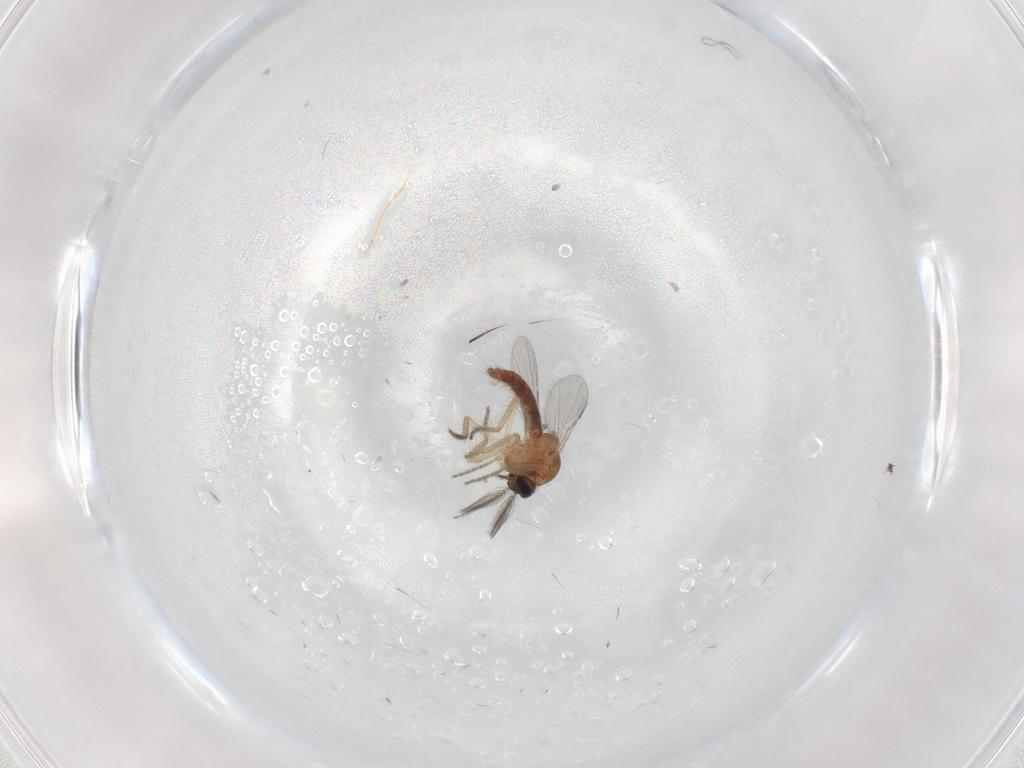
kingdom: Animalia
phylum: Arthropoda
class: Insecta
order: Diptera
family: Ceratopogonidae
